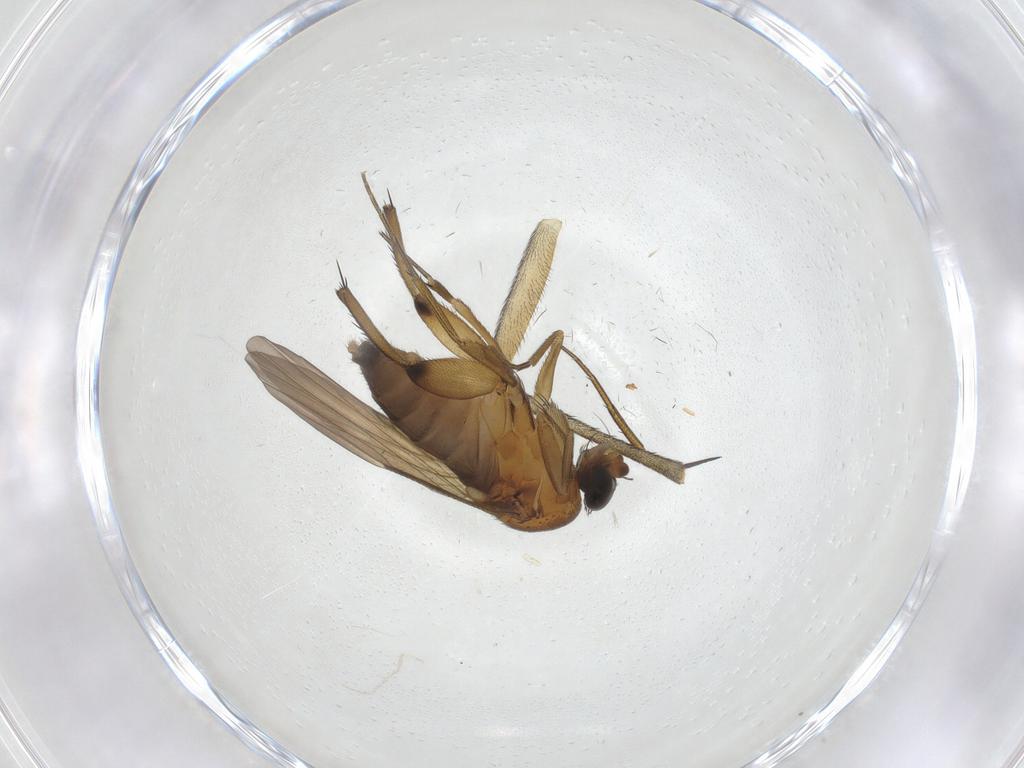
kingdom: Animalia
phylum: Arthropoda
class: Insecta
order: Diptera
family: Phoridae
